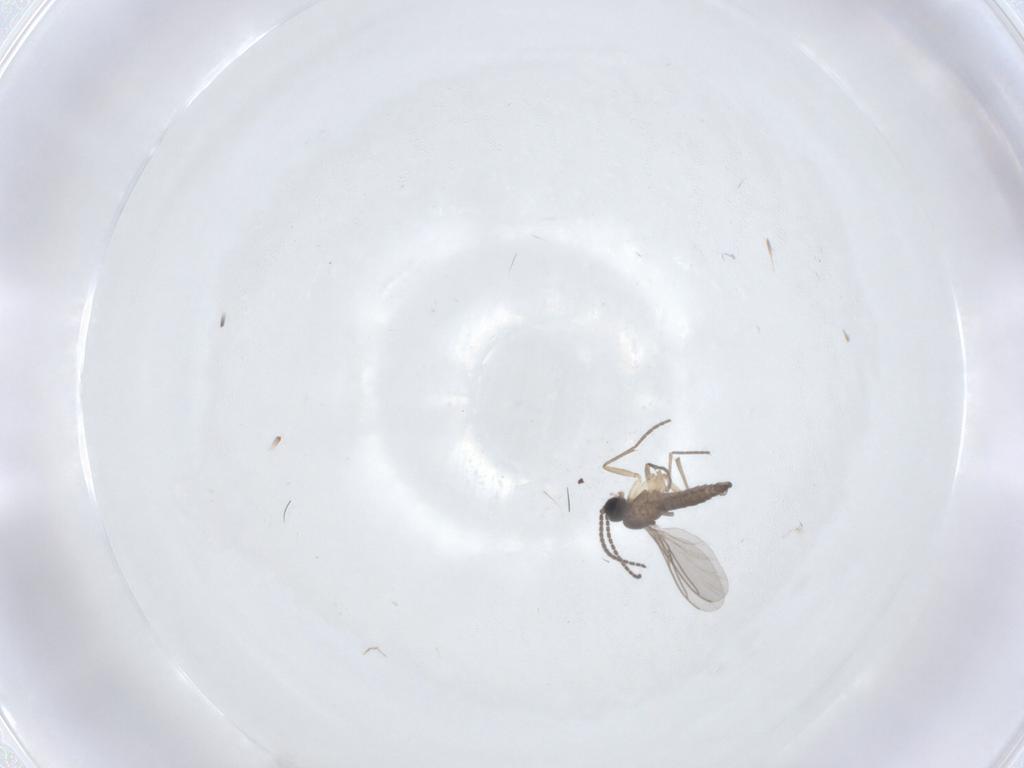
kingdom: Animalia
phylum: Arthropoda
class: Insecta
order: Diptera
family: Sciaridae
